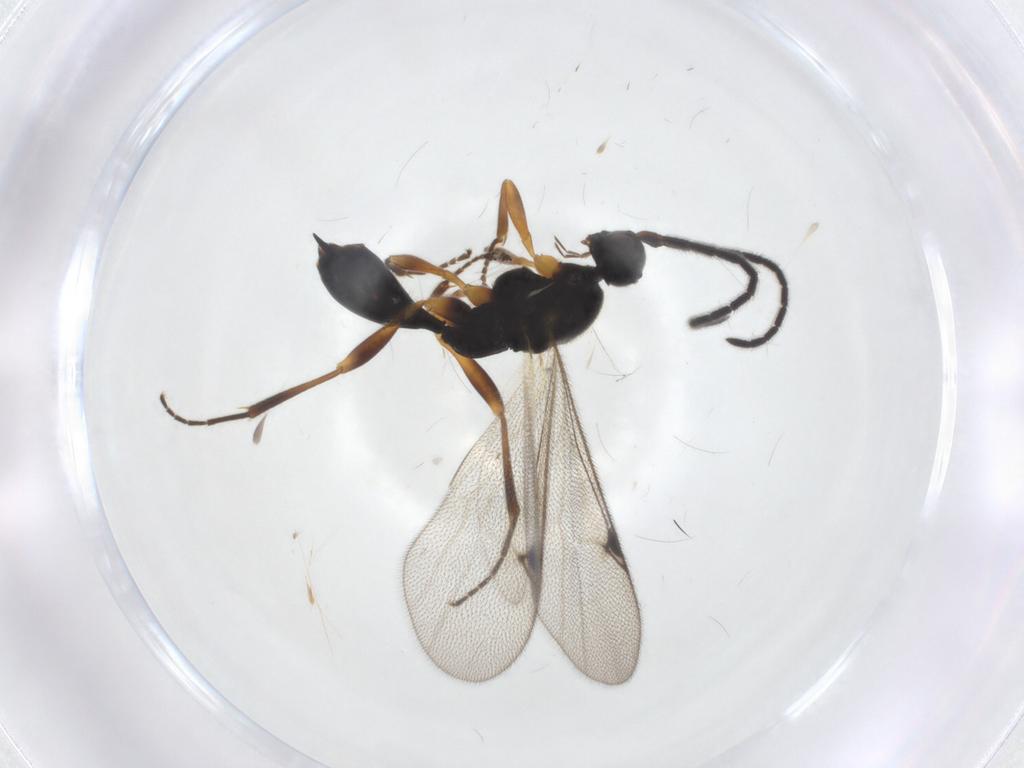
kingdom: Animalia
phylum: Arthropoda
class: Insecta
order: Hymenoptera
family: Proctotrupidae
